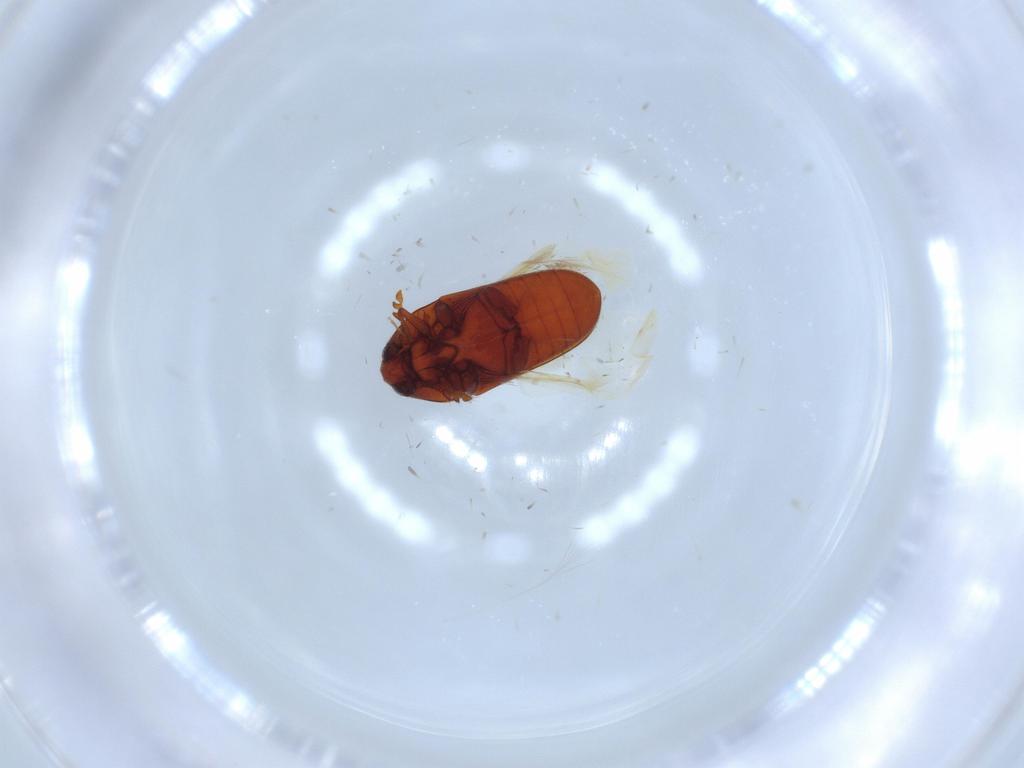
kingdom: Animalia
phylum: Arthropoda
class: Insecta
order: Coleoptera
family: Throscidae
